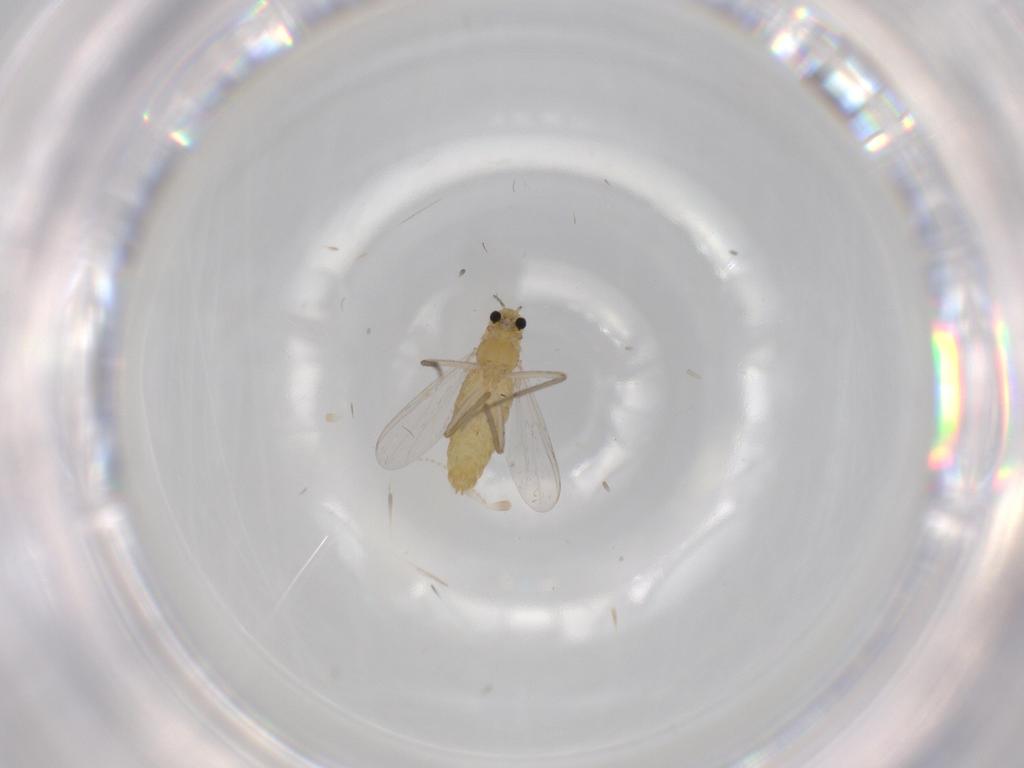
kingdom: Animalia
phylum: Arthropoda
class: Insecta
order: Diptera
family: Chironomidae
